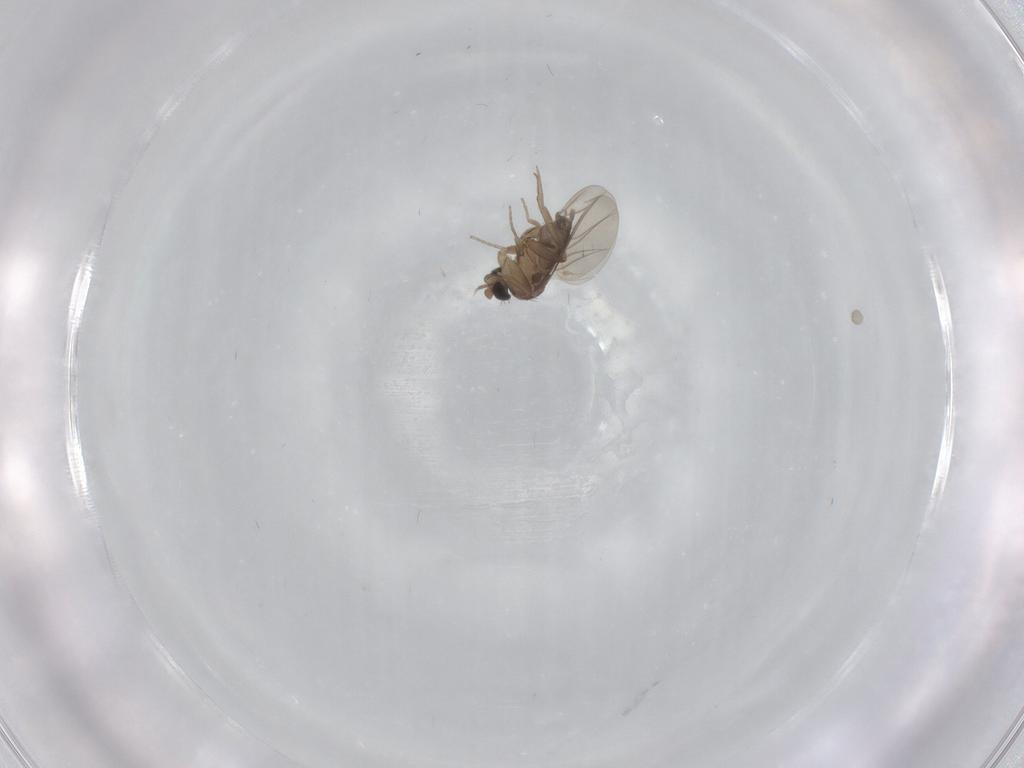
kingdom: Animalia
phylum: Arthropoda
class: Insecta
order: Diptera
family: Phoridae
